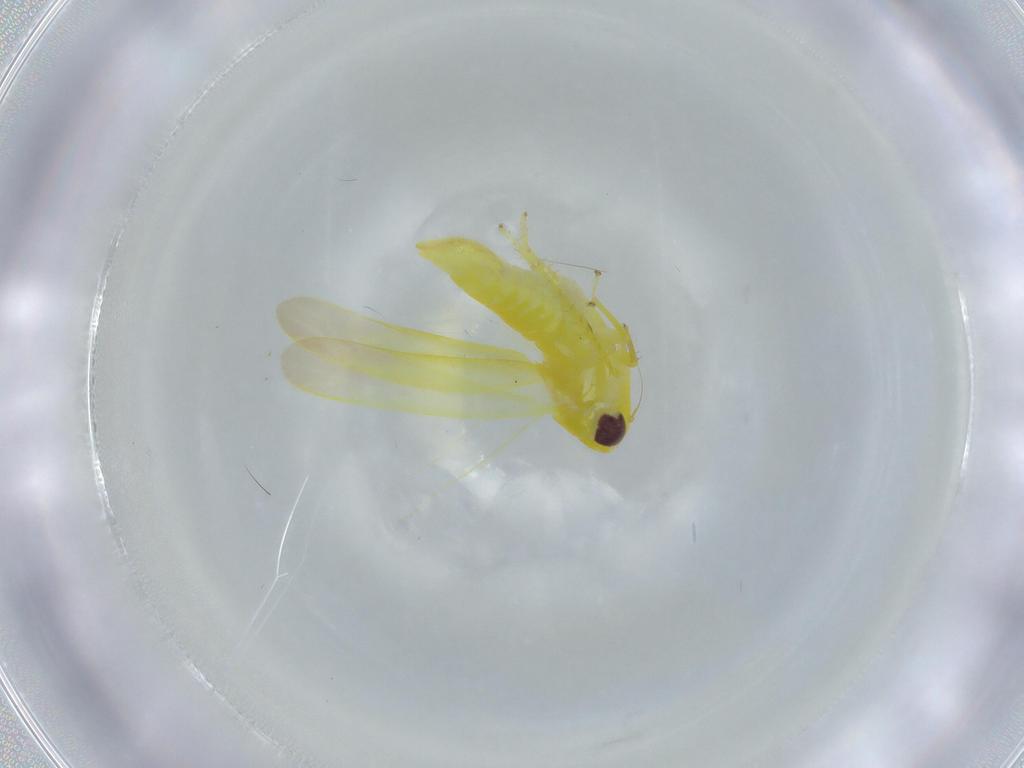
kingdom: Animalia
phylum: Arthropoda
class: Insecta
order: Hemiptera
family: Cicadellidae
